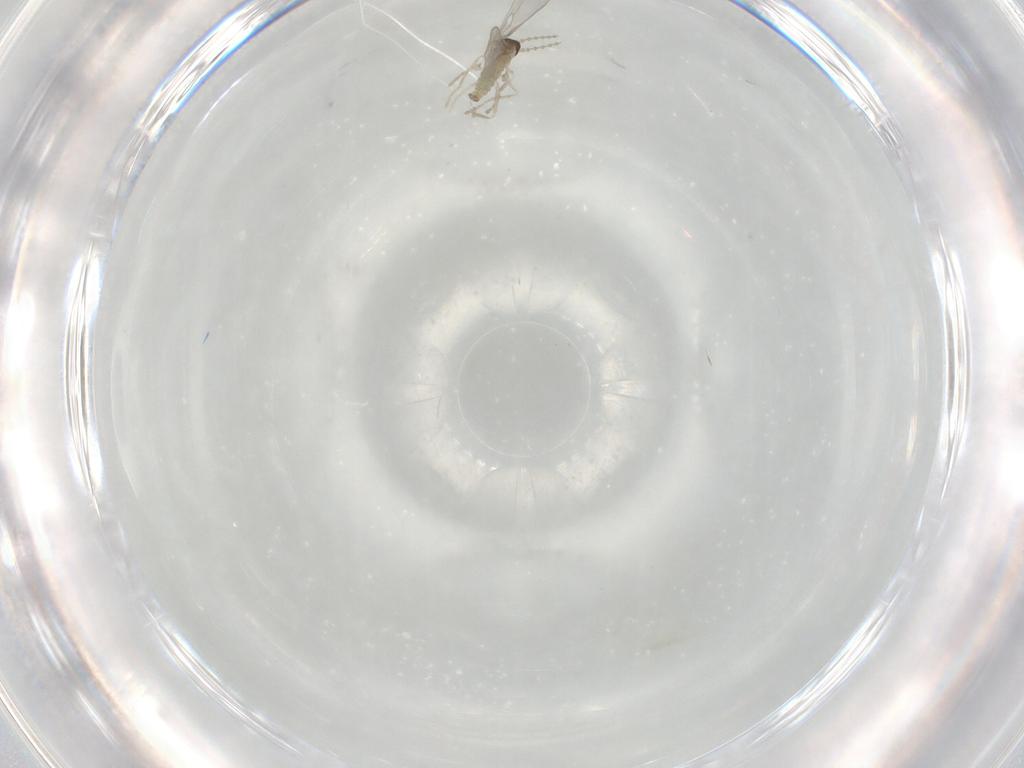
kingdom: Animalia
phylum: Arthropoda
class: Insecta
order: Diptera
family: Cecidomyiidae
